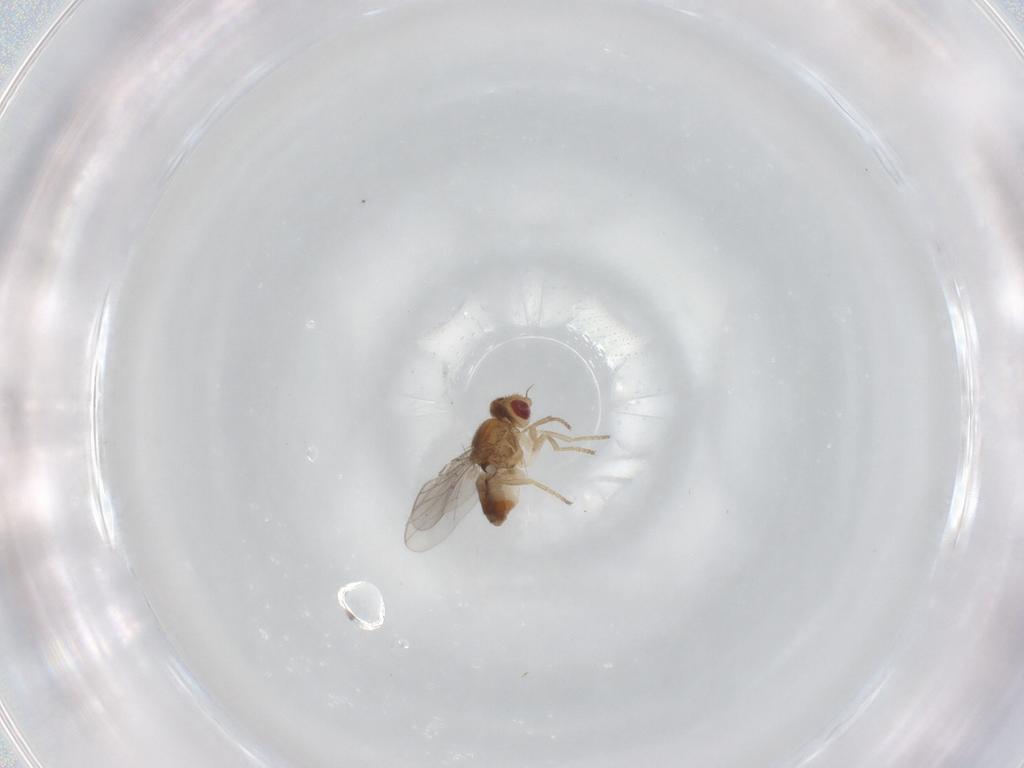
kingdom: Animalia
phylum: Arthropoda
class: Insecta
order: Diptera
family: Chloropidae
